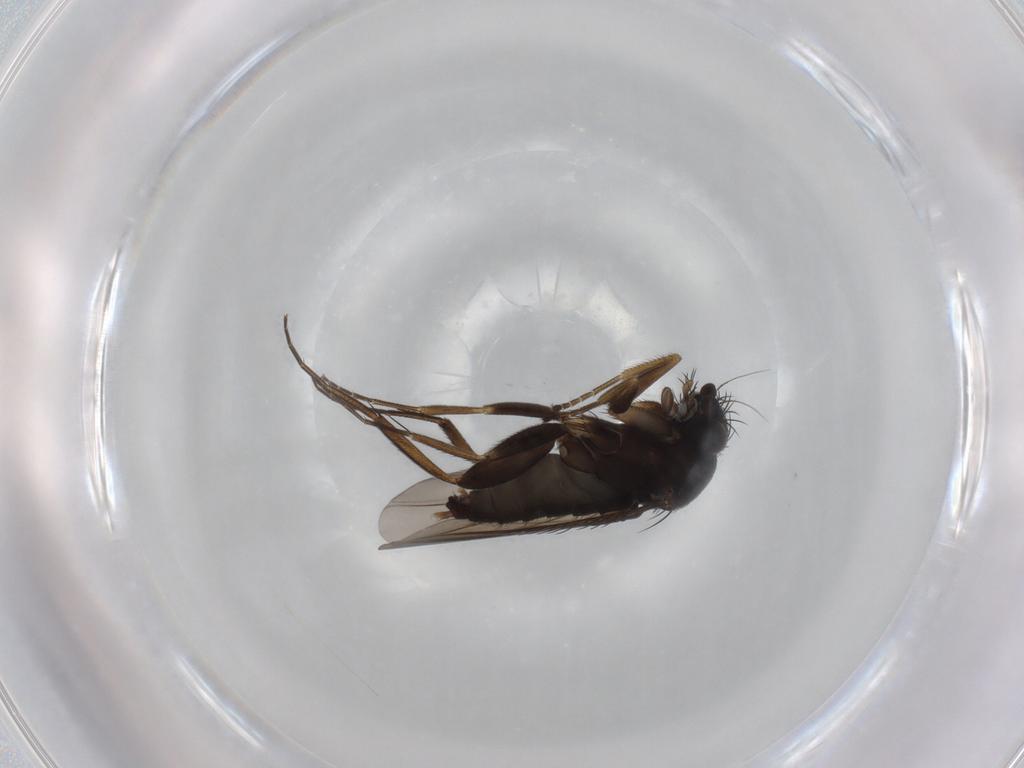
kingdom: Animalia
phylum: Arthropoda
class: Insecta
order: Diptera
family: Phoridae
